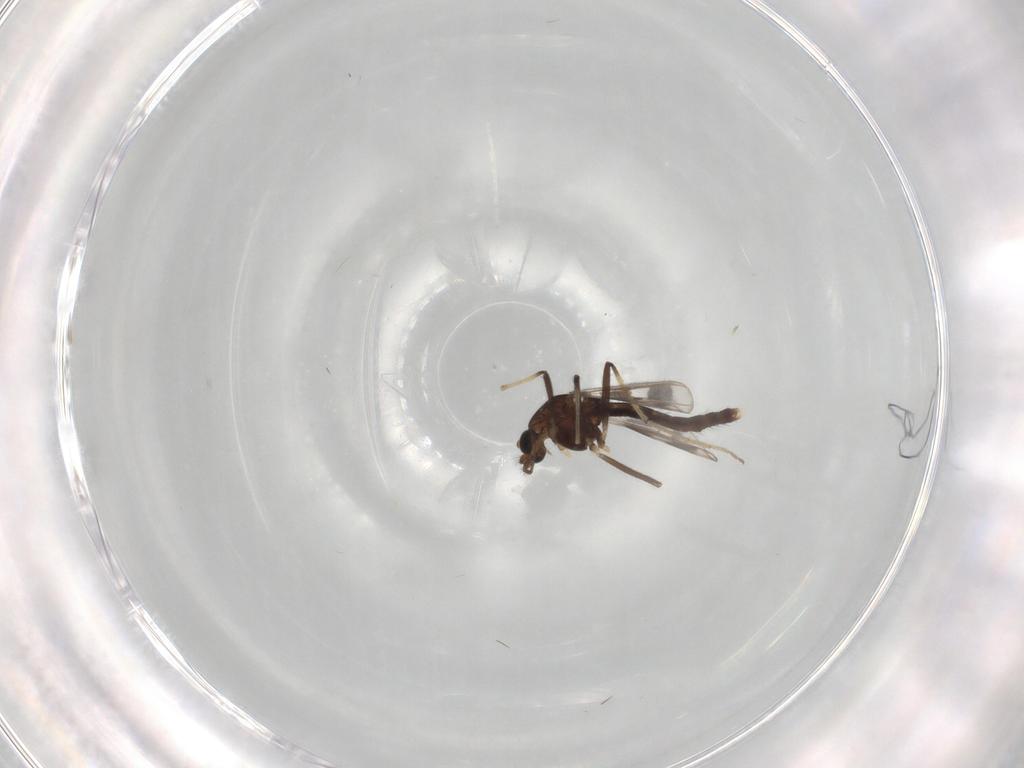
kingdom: Animalia
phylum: Arthropoda
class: Insecta
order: Diptera
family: Chironomidae
